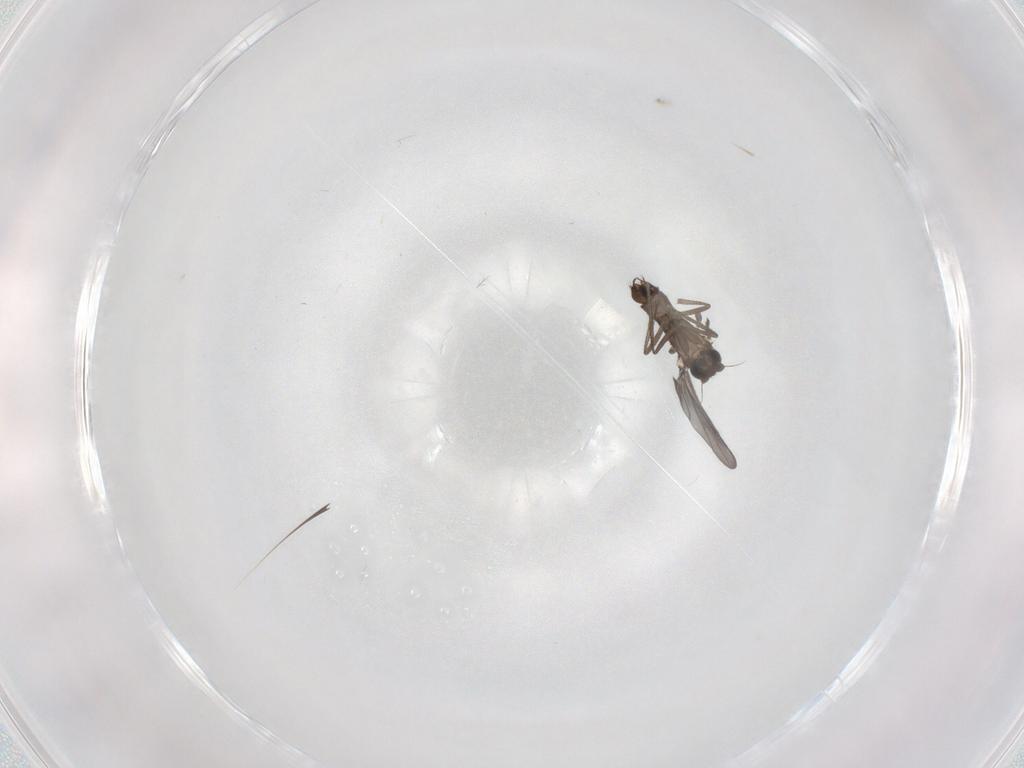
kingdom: Animalia
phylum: Arthropoda
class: Insecta
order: Diptera
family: Phoridae
